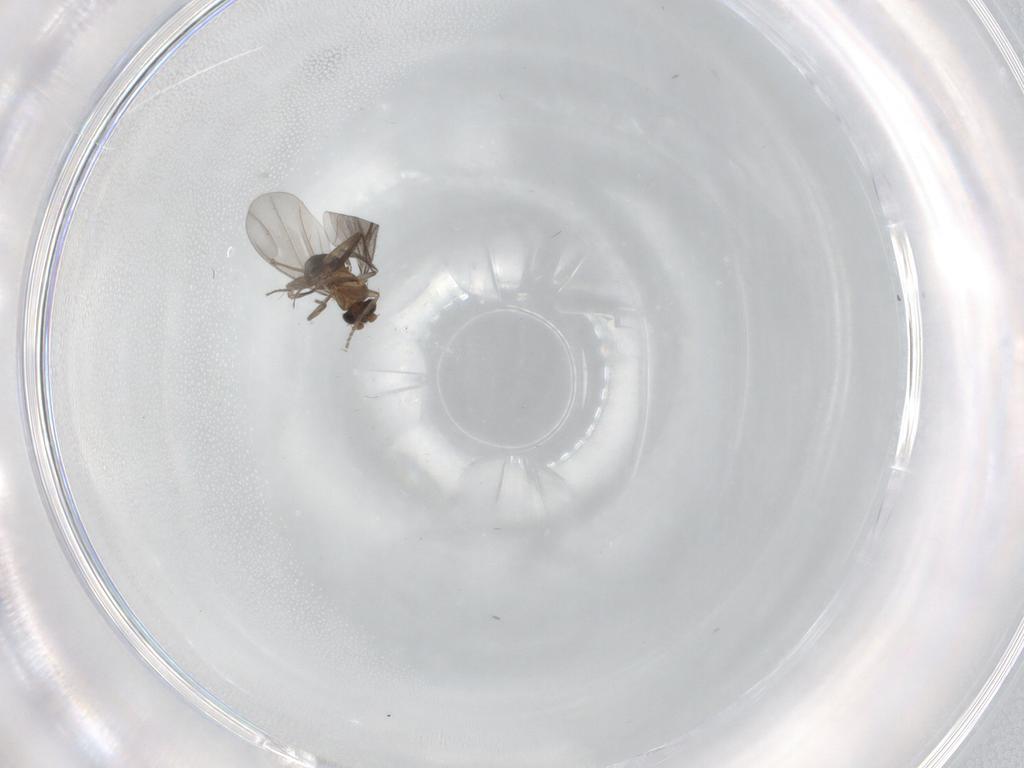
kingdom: Animalia
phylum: Arthropoda
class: Insecta
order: Diptera
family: Phoridae
